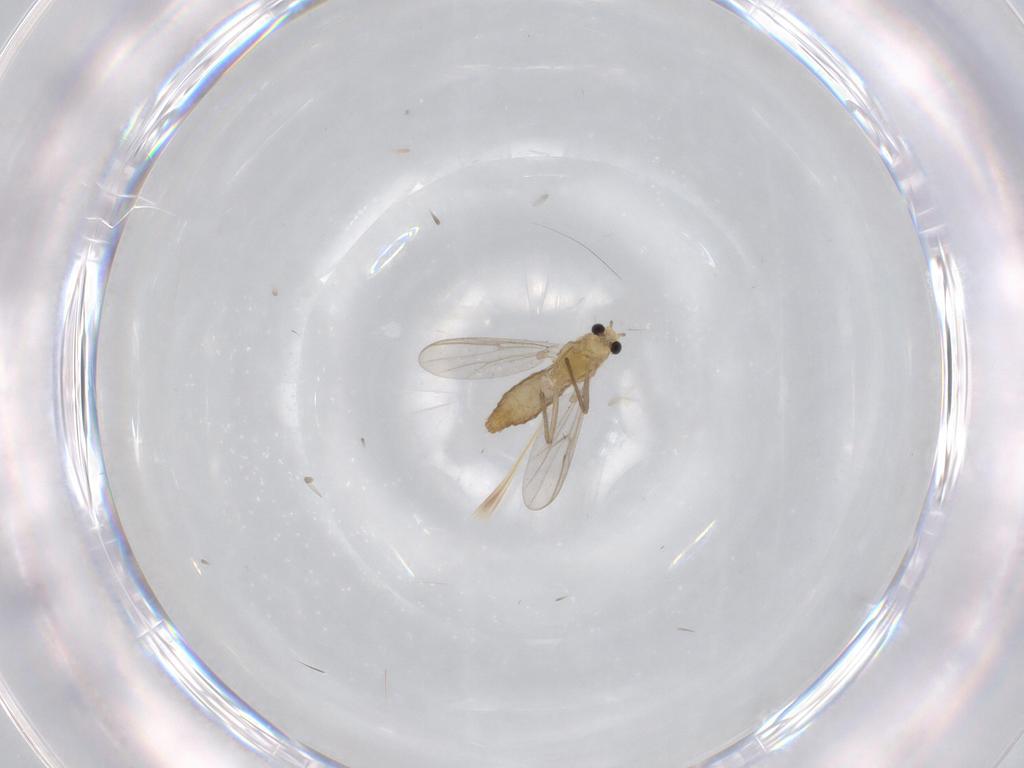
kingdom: Animalia
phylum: Arthropoda
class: Insecta
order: Diptera
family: Chironomidae
